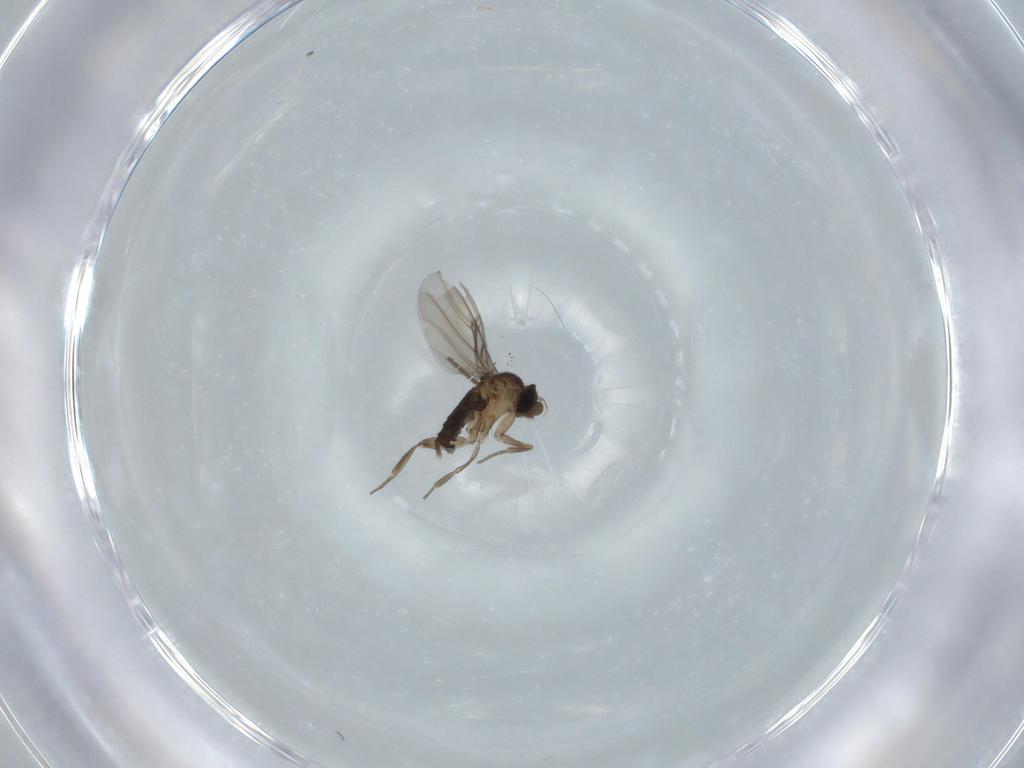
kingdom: Animalia
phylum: Arthropoda
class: Insecta
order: Diptera
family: Sciaridae
